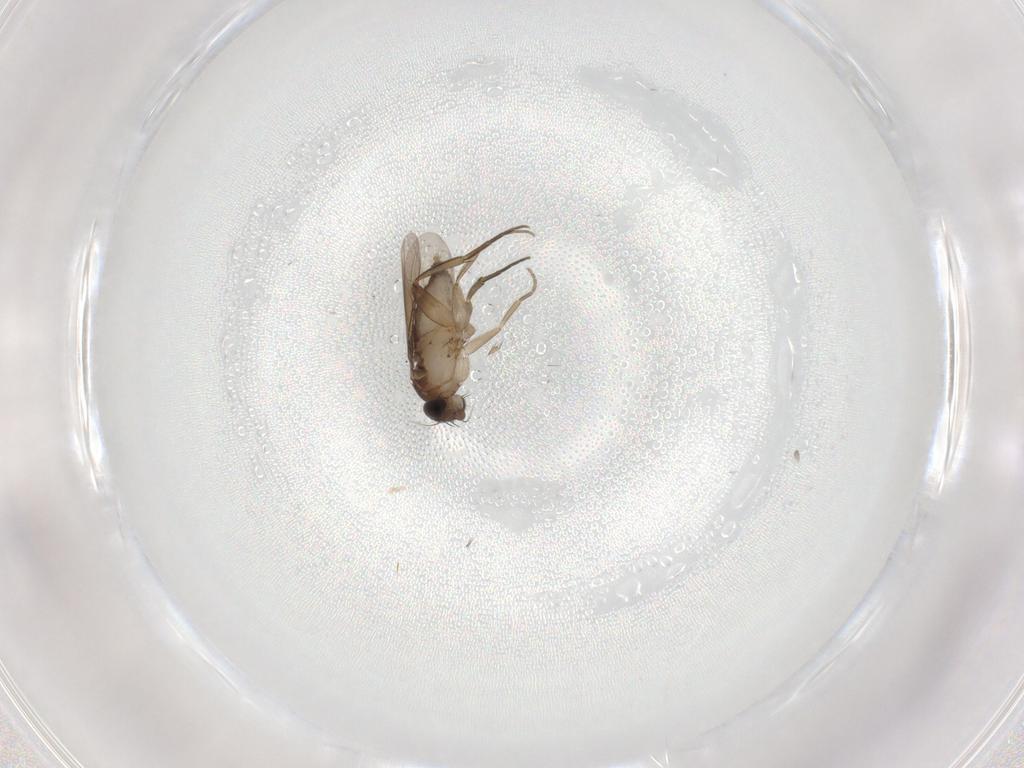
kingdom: Animalia
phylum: Arthropoda
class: Insecta
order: Diptera
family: Phoridae
